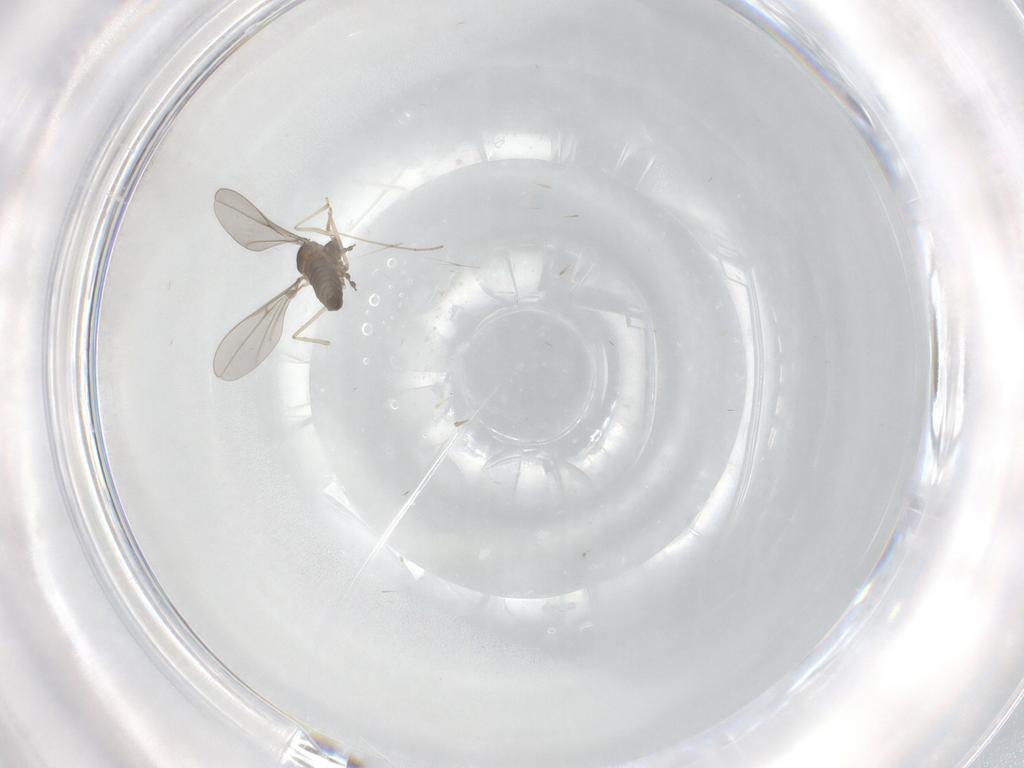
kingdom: Animalia
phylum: Arthropoda
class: Insecta
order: Diptera
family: Cecidomyiidae
